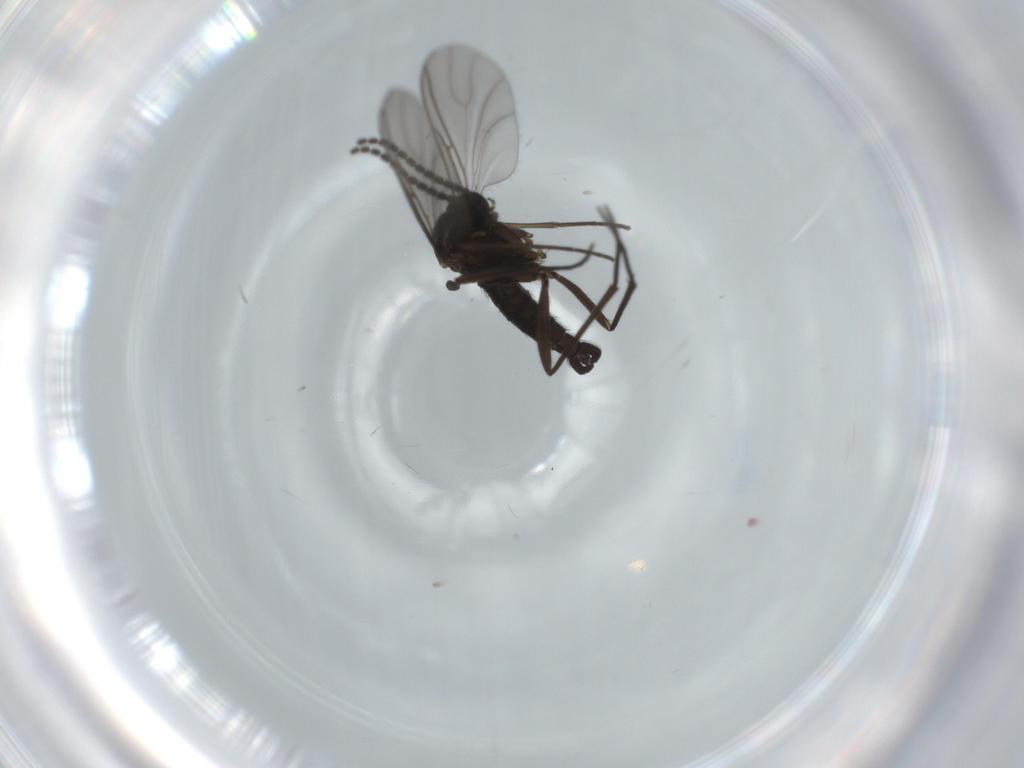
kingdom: Animalia
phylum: Arthropoda
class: Insecta
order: Diptera
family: Sciaridae
